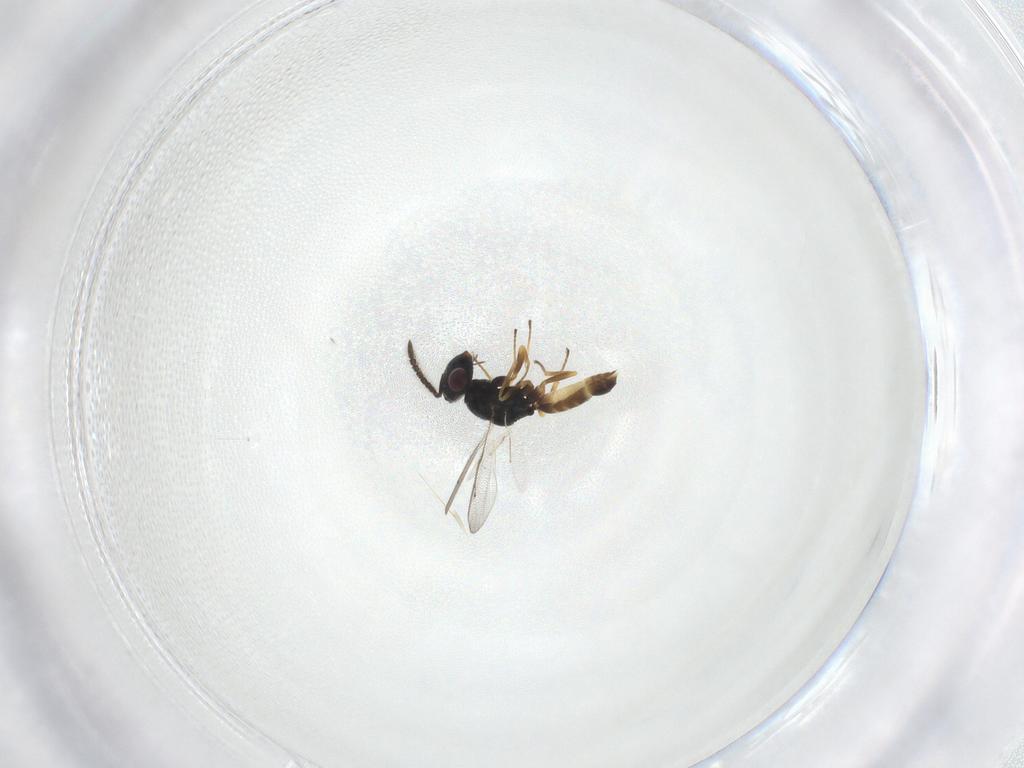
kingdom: Animalia
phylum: Arthropoda
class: Insecta
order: Hymenoptera
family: Pteromalidae
